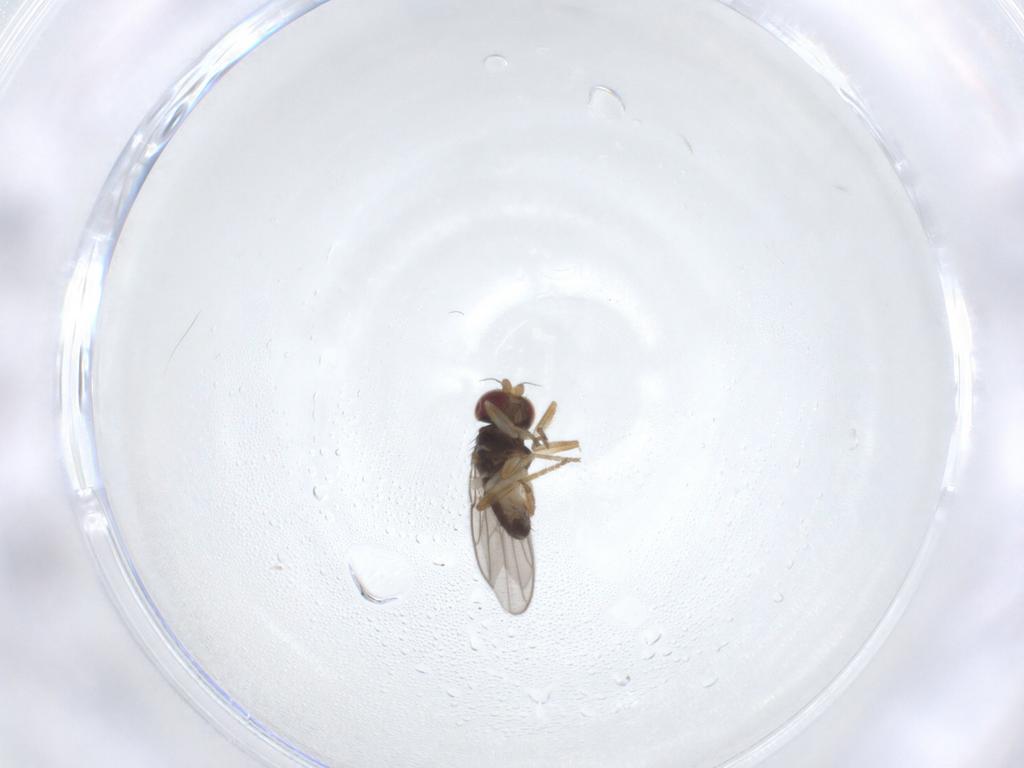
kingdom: Animalia
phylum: Arthropoda
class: Insecta
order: Diptera
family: Chloropidae
